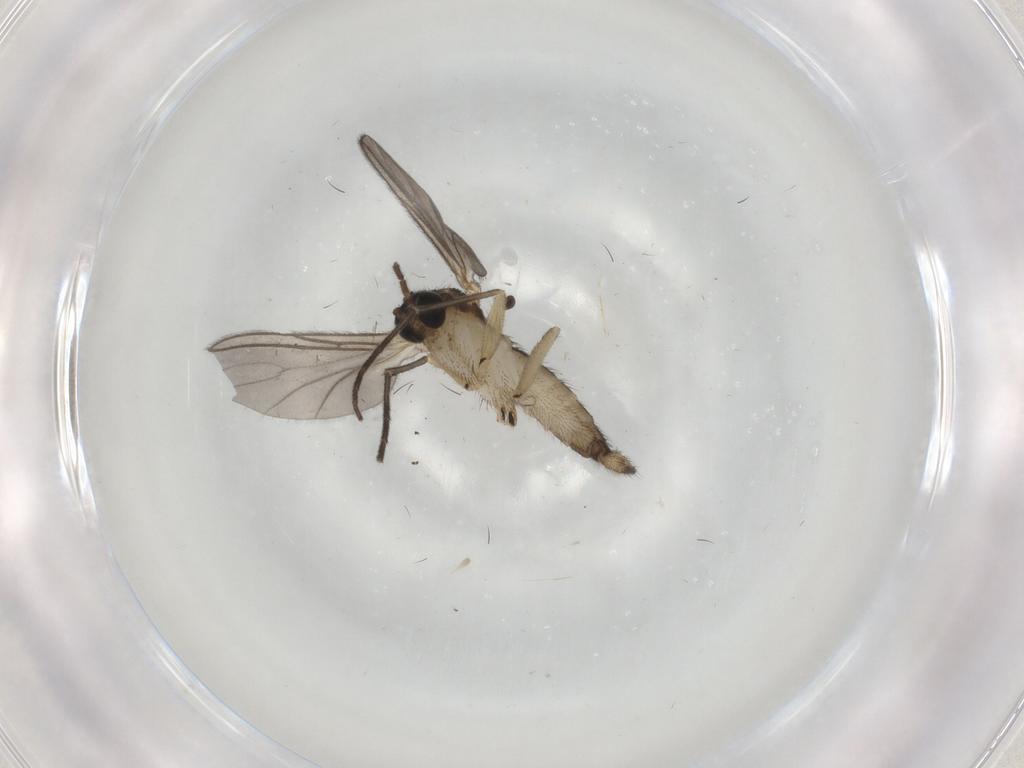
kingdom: Animalia
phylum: Arthropoda
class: Insecta
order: Diptera
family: Sciaridae
